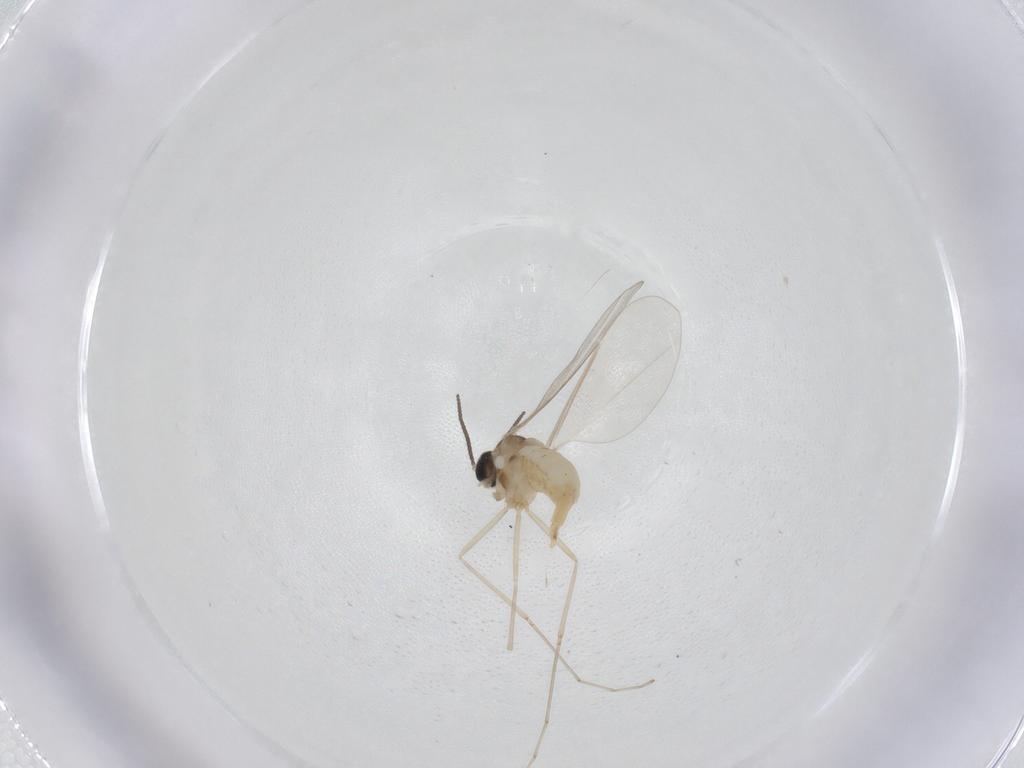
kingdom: Animalia
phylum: Arthropoda
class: Insecta
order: Diptera
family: Cecidomyiidae
